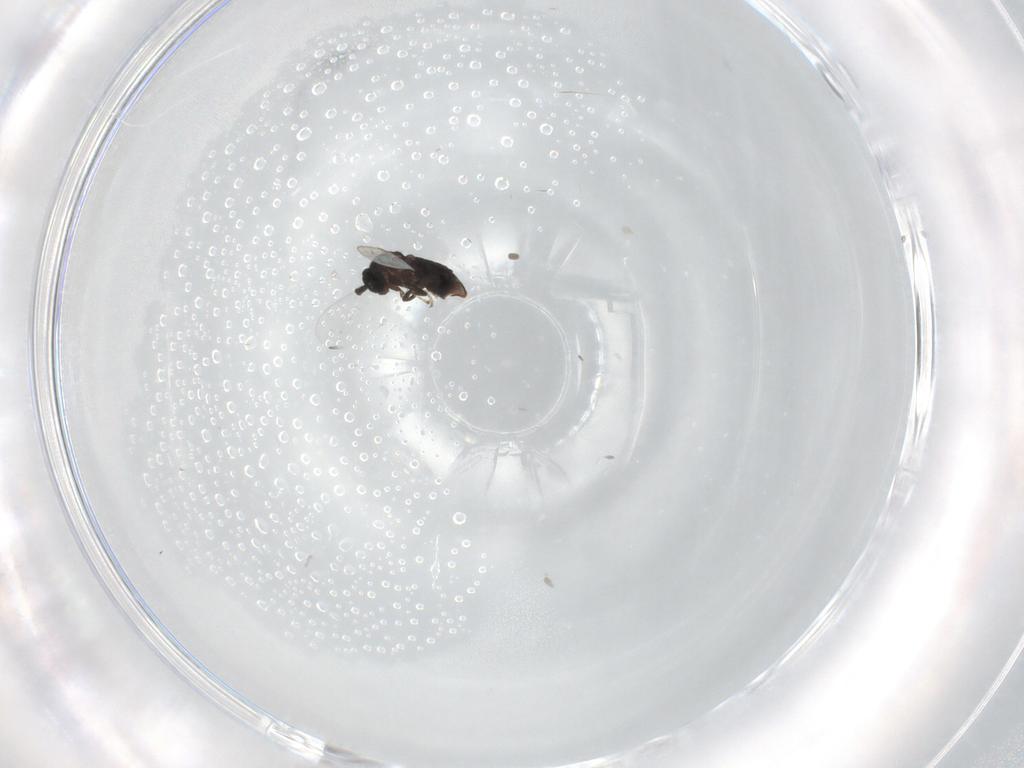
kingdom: Animalia
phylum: Arthropoda
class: Insecta
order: Diptera
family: Scatopsidae
